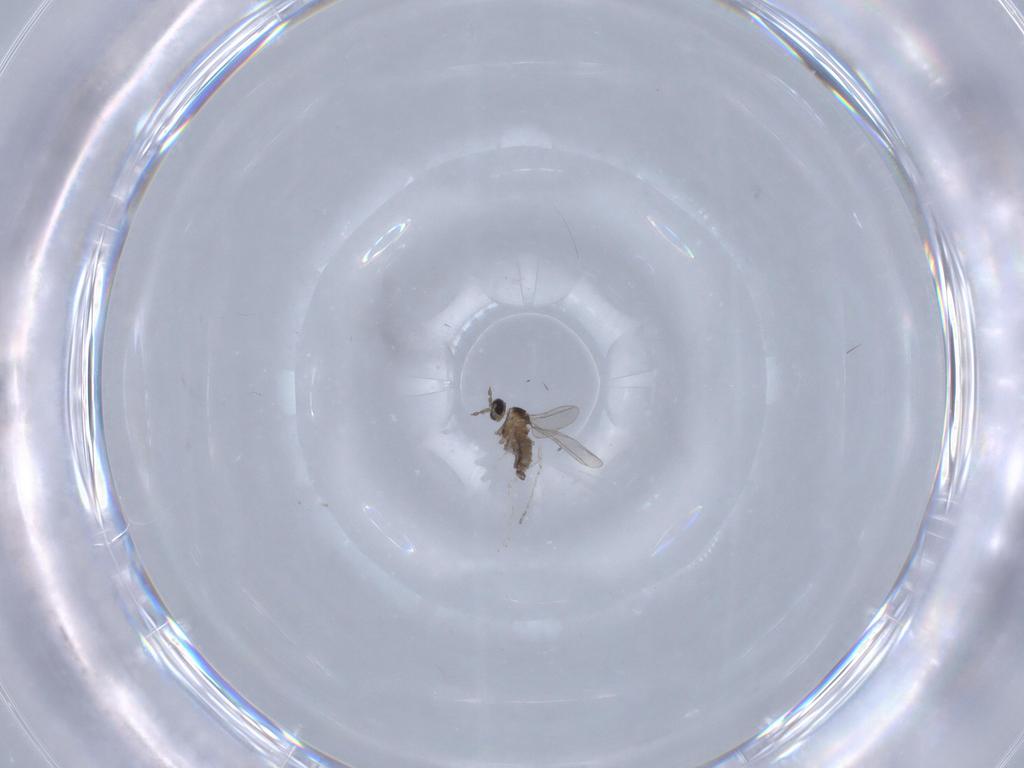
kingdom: Animalia
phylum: Arthropoda
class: Insecta
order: Diptera
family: Cecidomyiidae
